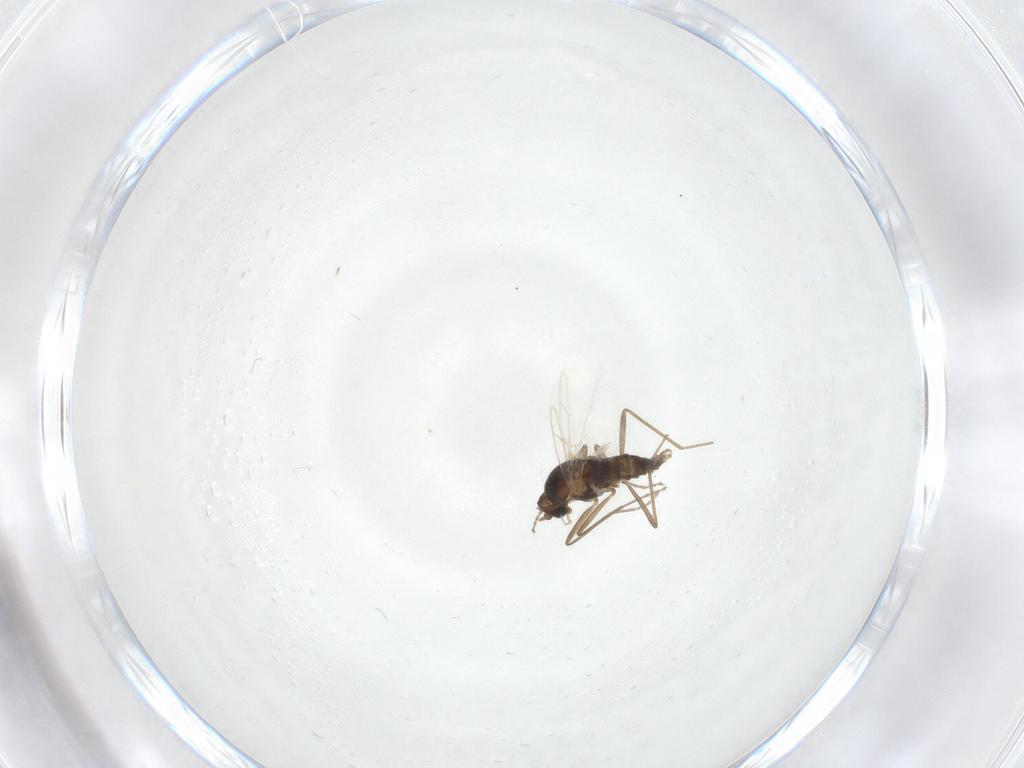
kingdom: Animalia
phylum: Arthropoda
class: Insecta
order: Diptera
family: Cecidomyiidae
